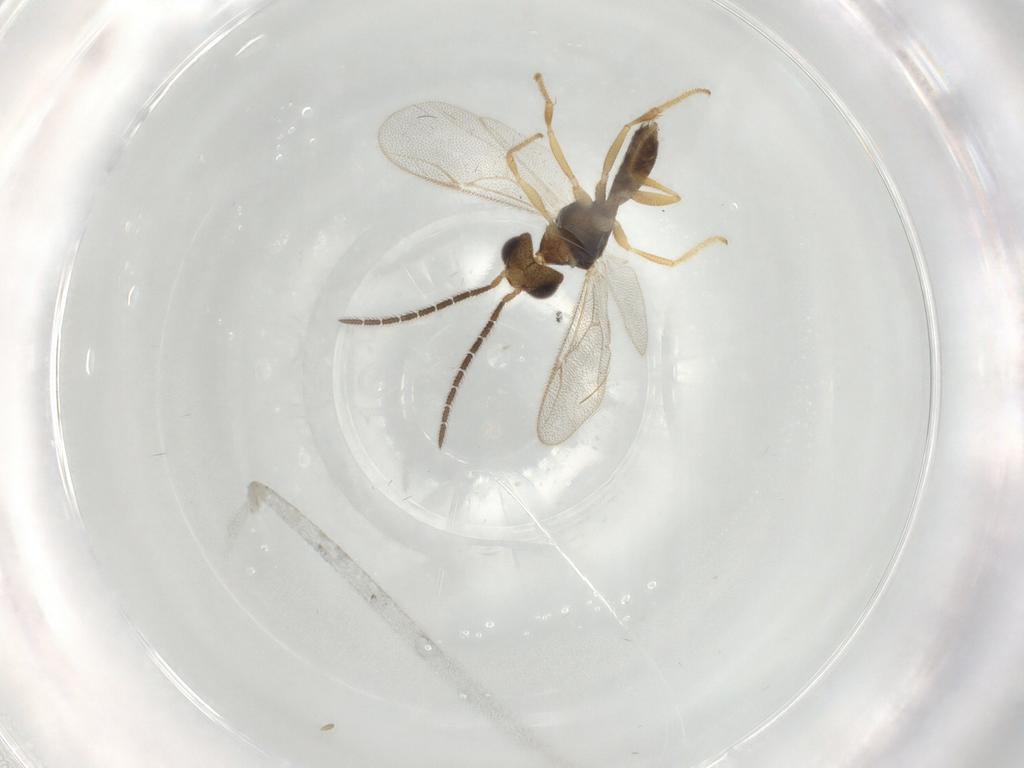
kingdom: Animalia
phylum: Arthropoda
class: Insecta
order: Hymenoptera
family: Dryinidae
